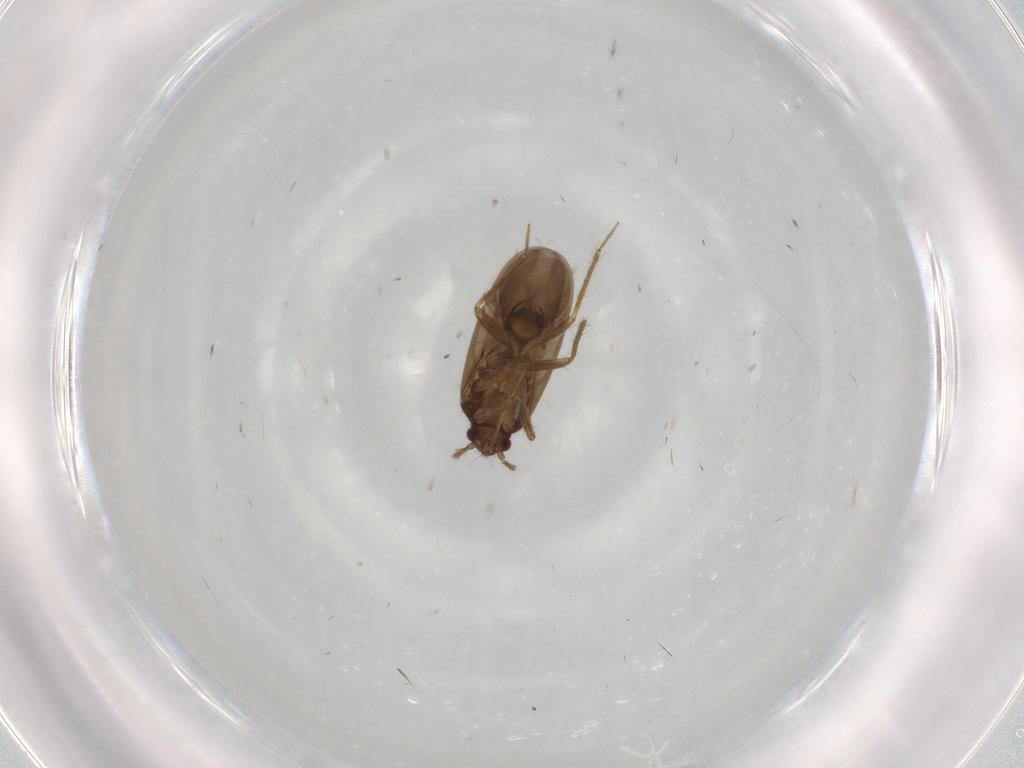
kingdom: Animalia
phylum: Arthropoda
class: Insecta
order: Hemiptera
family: Ceratocombidae
